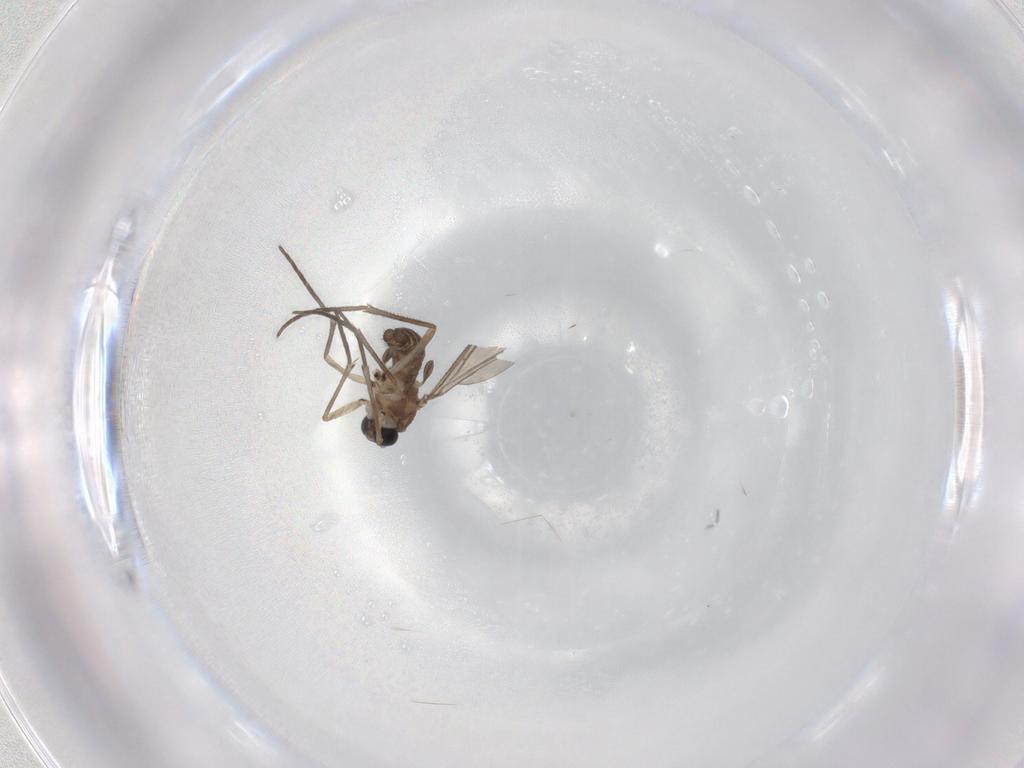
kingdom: Animalia
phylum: Arthropoda
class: Insecta
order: Diptera
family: Sciaridae
